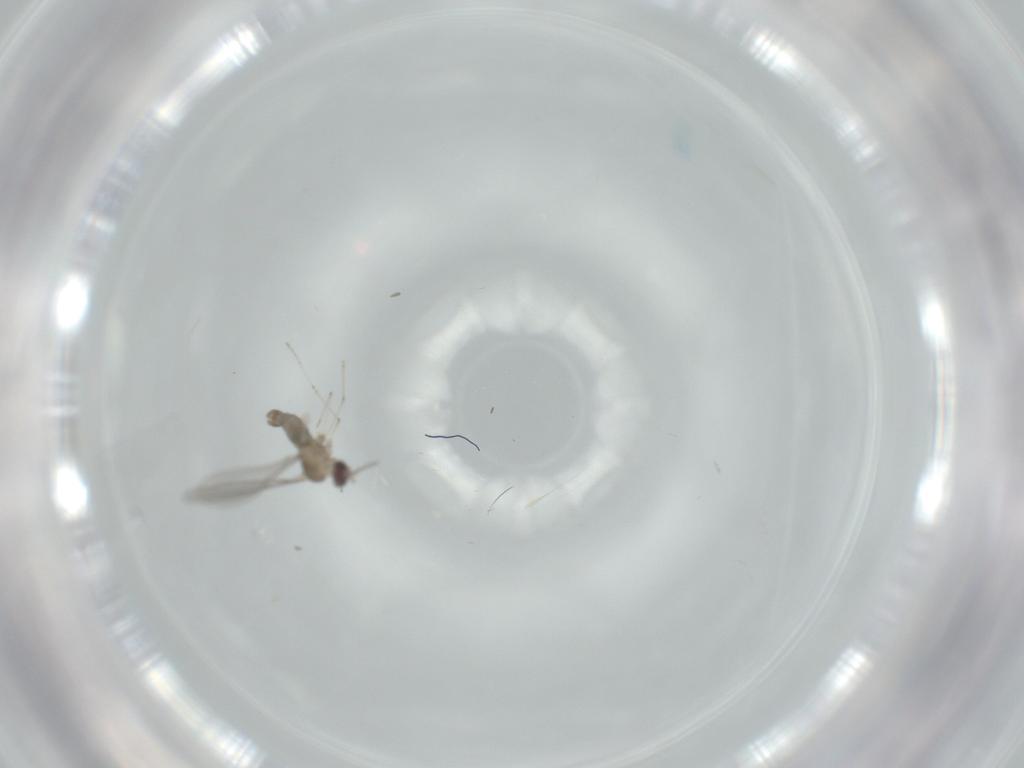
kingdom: Animalia
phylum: Arthropoda
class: Insecta
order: Diptera
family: Cecidomyiidae
